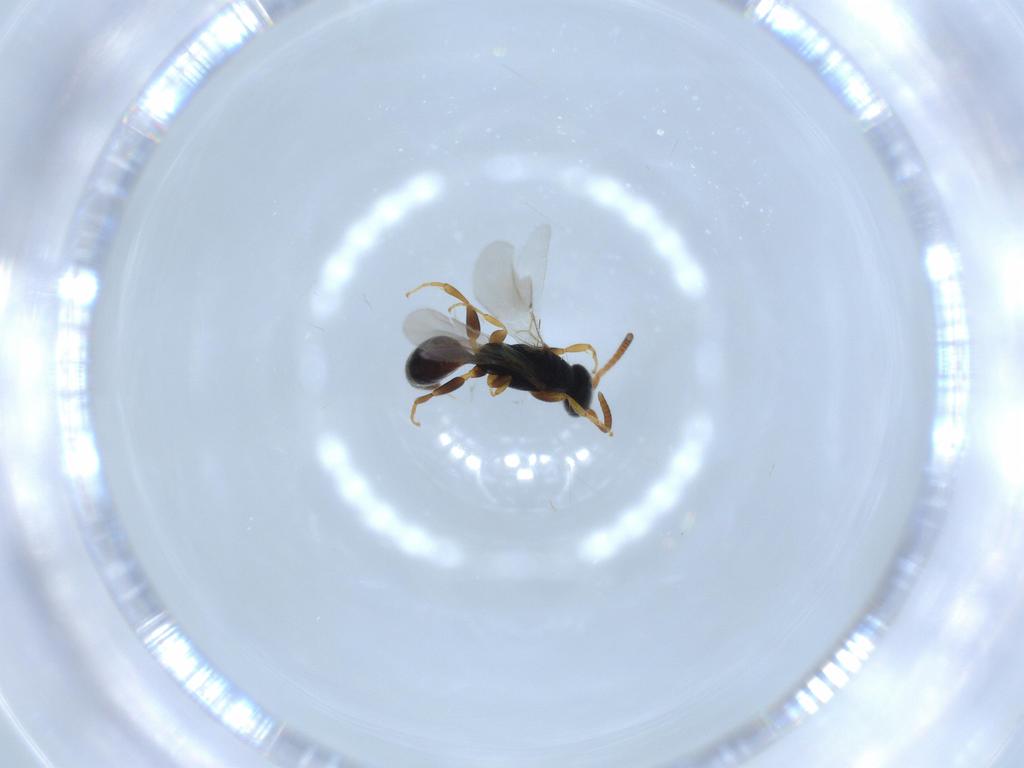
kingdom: Animalia
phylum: Arthropoda
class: Insecta
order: Hymenoptera
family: Bethylidae
